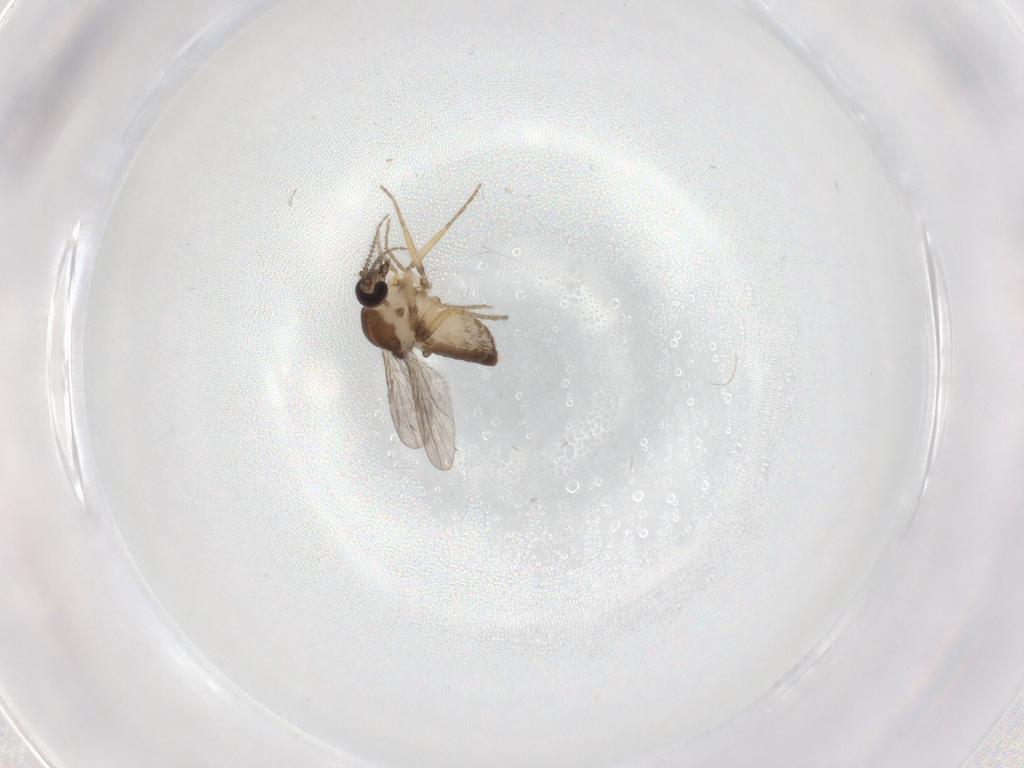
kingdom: Animalia
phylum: Arthropoda
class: Insecta
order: Diptera
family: Ceratopogonidae
